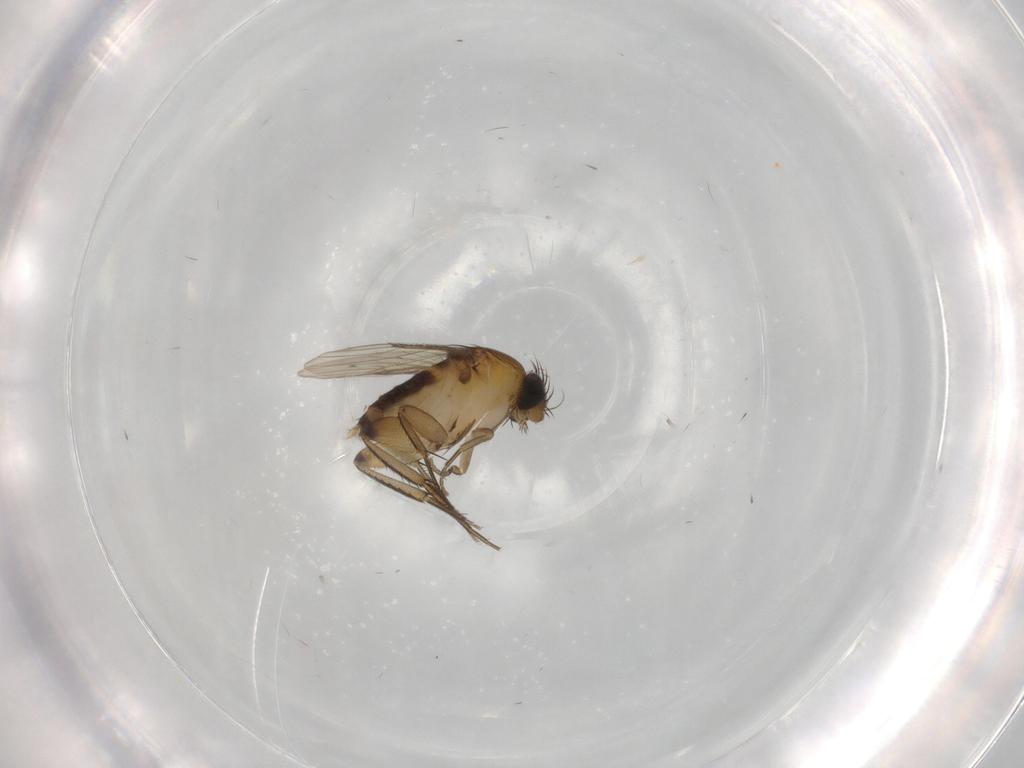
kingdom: Animalia
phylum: Arthropoda
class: Insecta
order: Diptera
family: Phoridae
